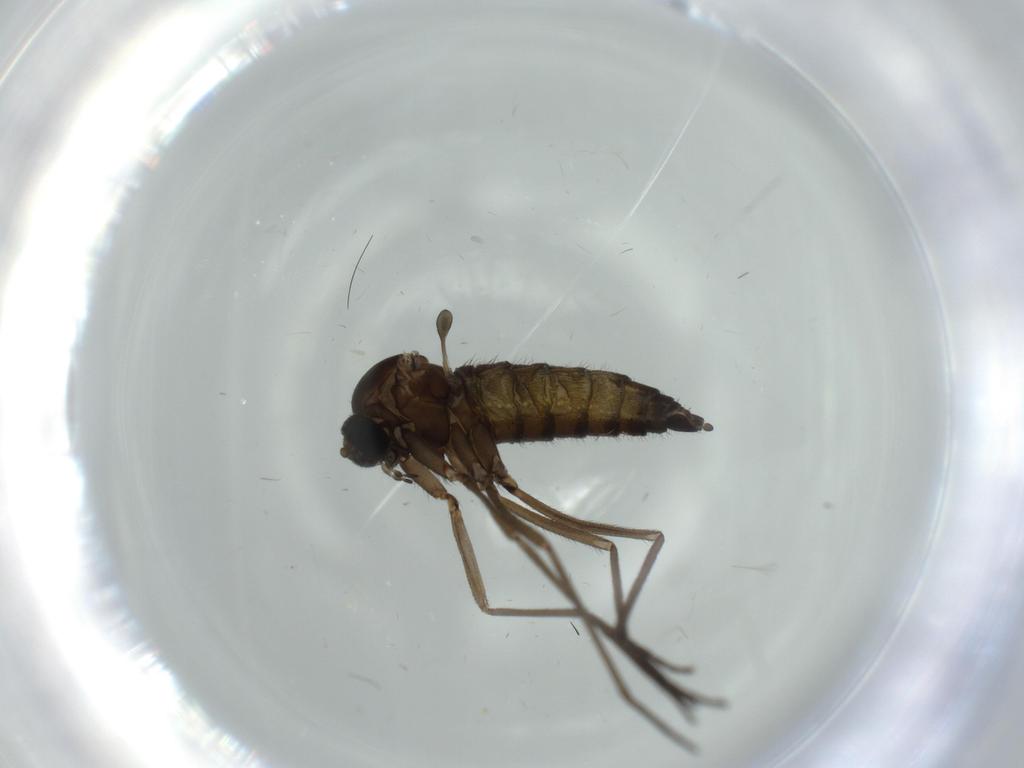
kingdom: Animalia
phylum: Arthropoda
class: Insecta
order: Diptera
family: Sciaridae
